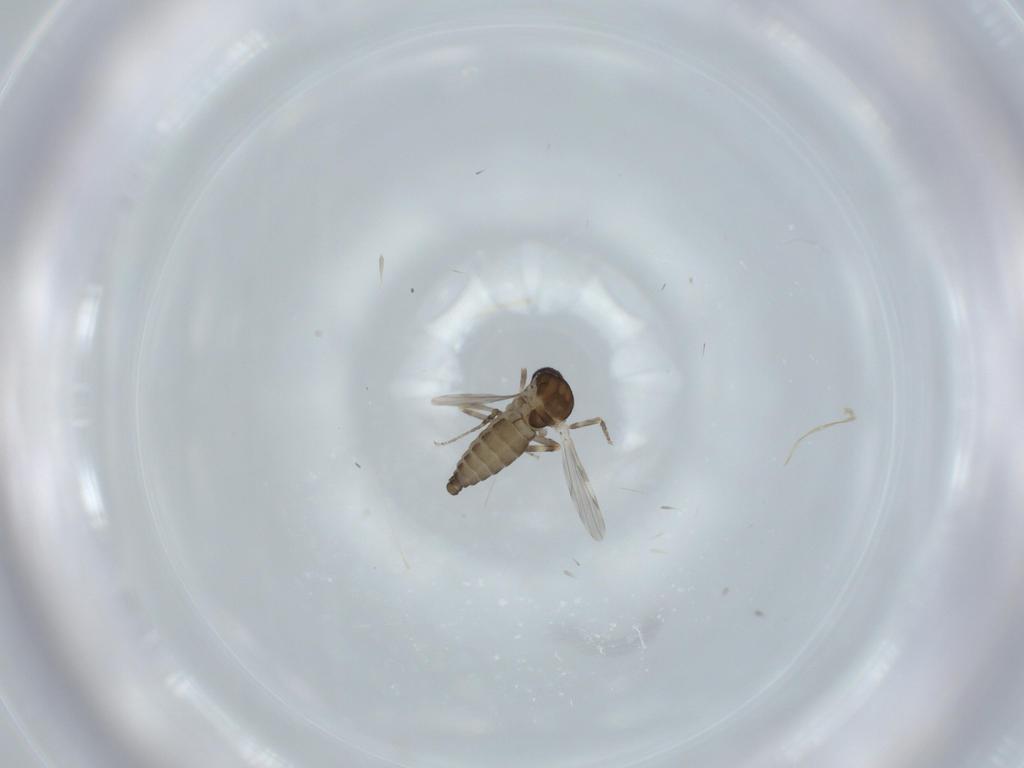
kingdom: Animalia
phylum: Arthropoda
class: Insecta
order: Diptera
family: Ceratopogonidae
